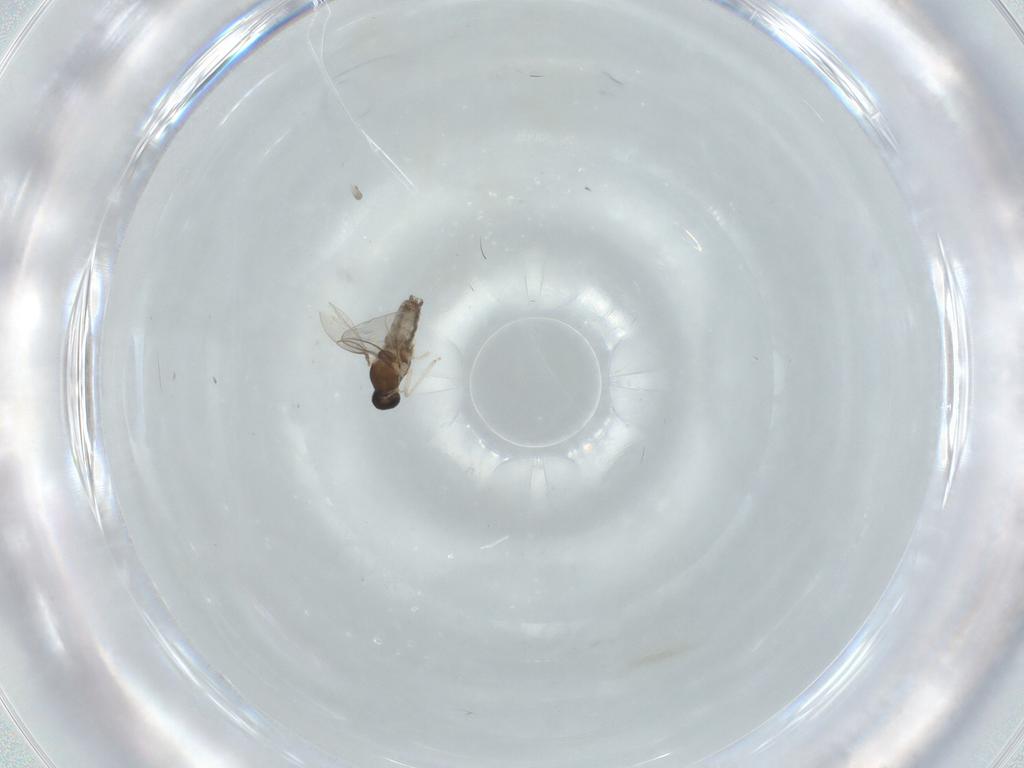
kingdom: Animalia
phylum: Arthropoda
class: Insecta
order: Diptera
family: Cecidomyiidae
